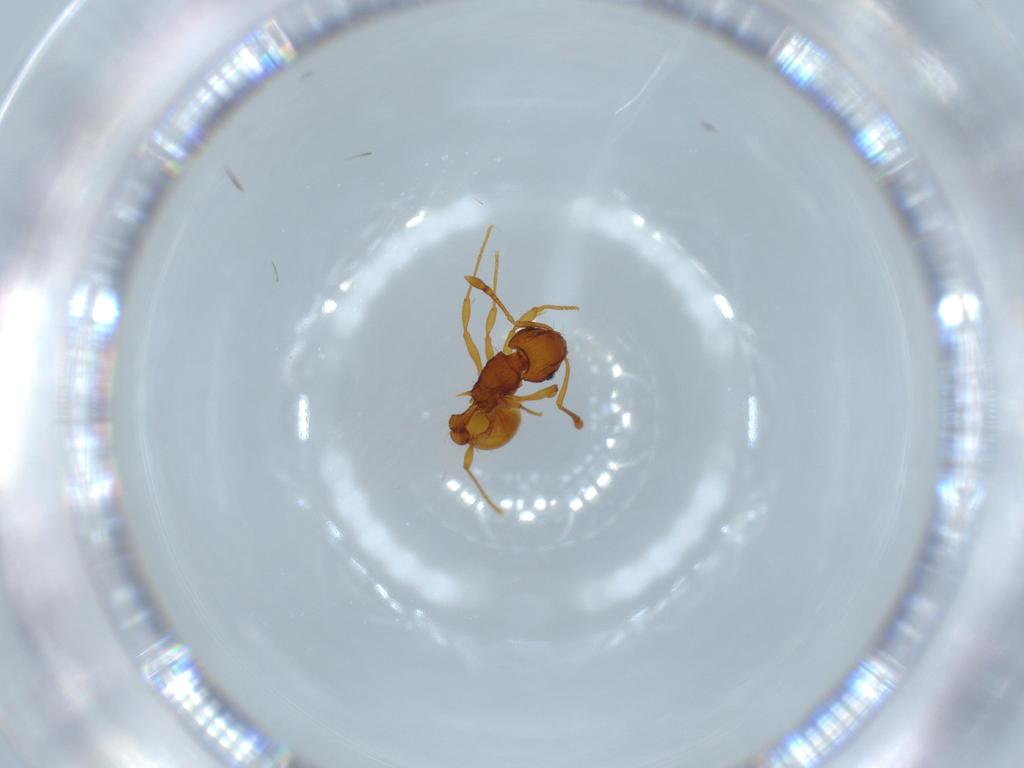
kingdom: Animalia
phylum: Arthropoda
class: Insecta
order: Hymenoptera
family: Formicidae
